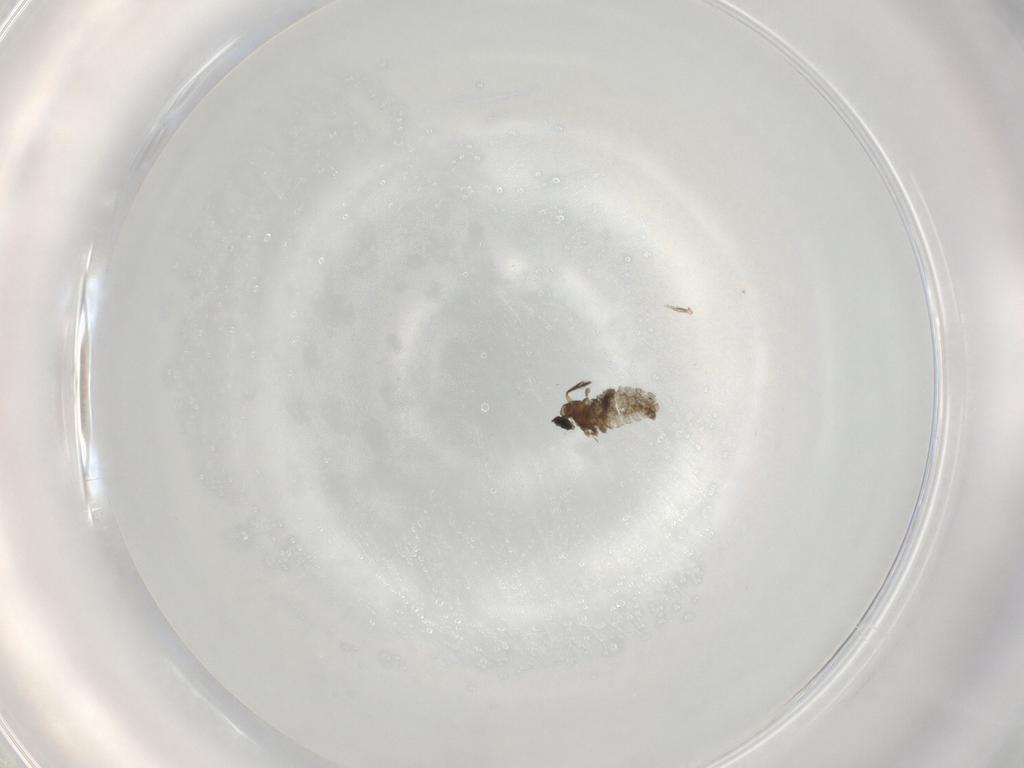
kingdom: Animalia
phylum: Arthropoda
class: Insecta
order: Diptera
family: Cecidomyiidae
